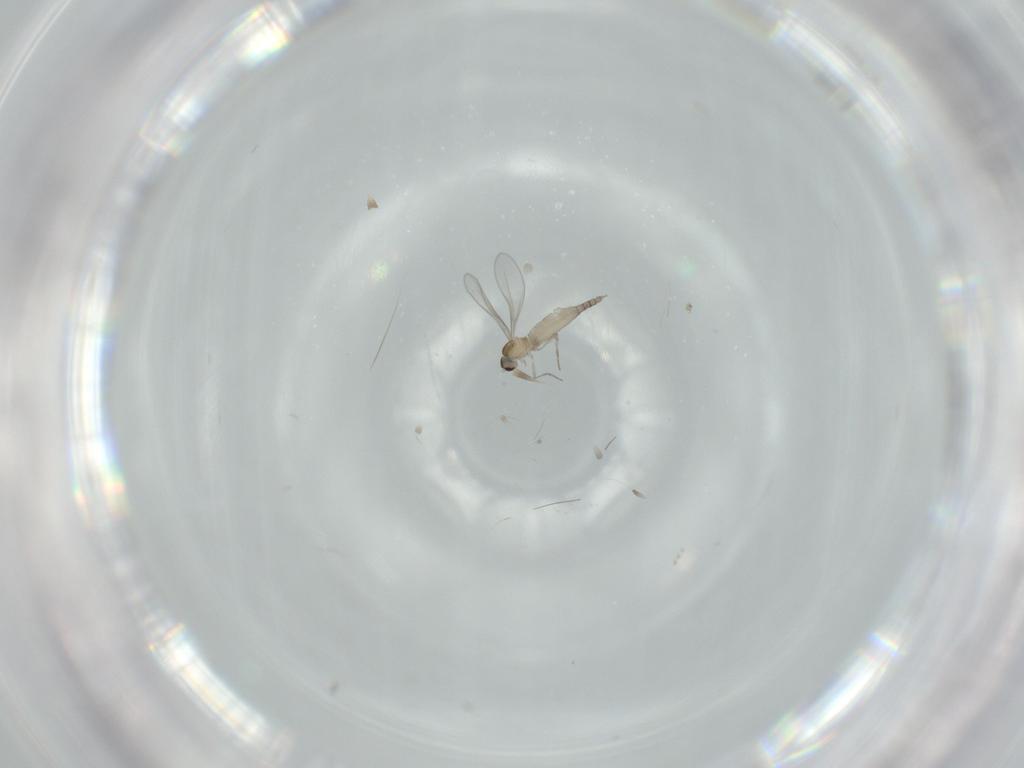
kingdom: Animalia
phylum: Arthropoda
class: Insecta
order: Diptera
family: Cecidomyiidae
